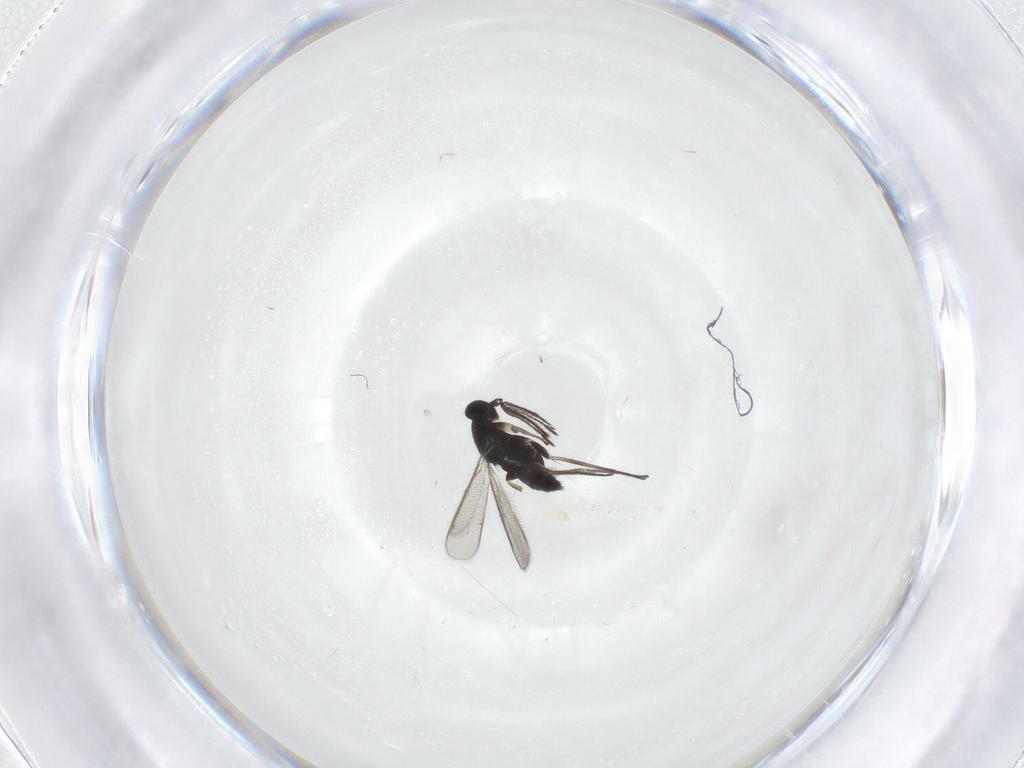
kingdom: Animalia
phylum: Arthropoda
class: Insecta
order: Hymenoptera
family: Eulophidae
